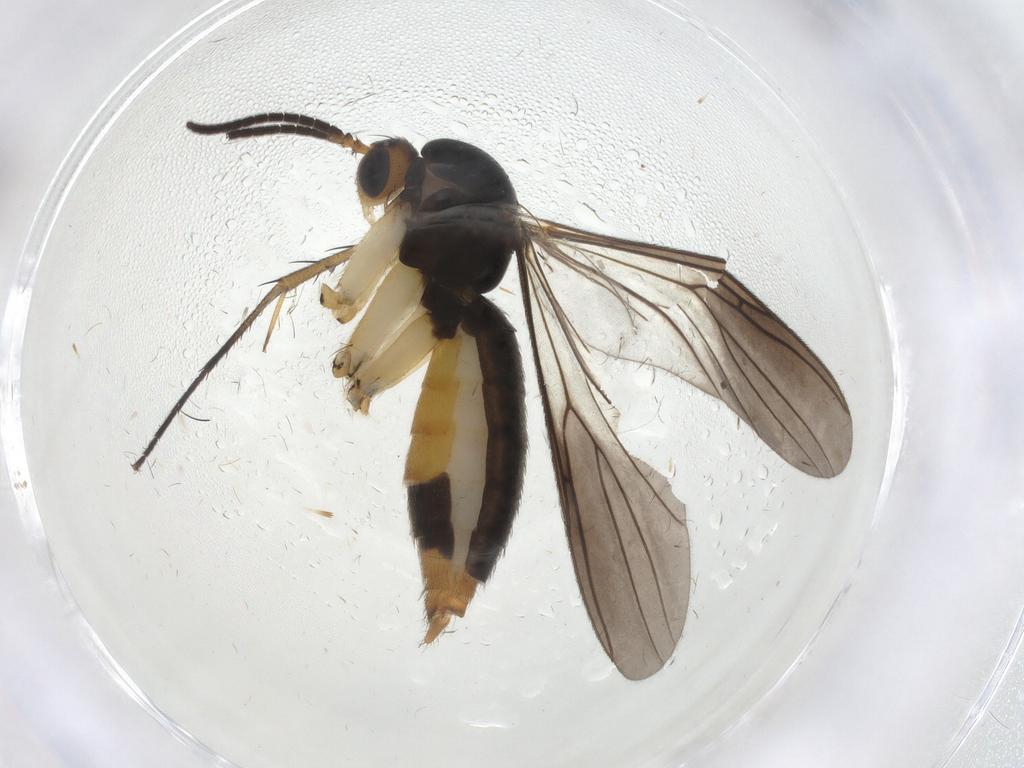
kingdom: Animalia
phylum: Arthropoda
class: Insecta
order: Diptera
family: Mycetophilidae
